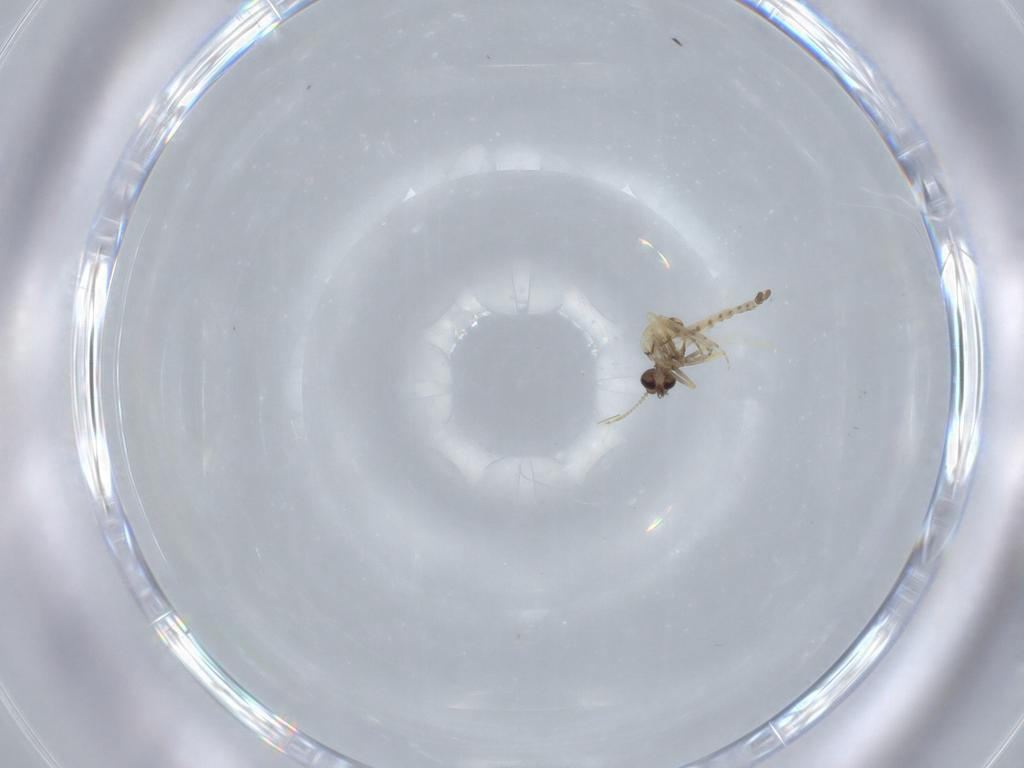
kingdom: Animalia
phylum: Arthropoda
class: Insecta
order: Diptera
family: Ceratopogonidae
